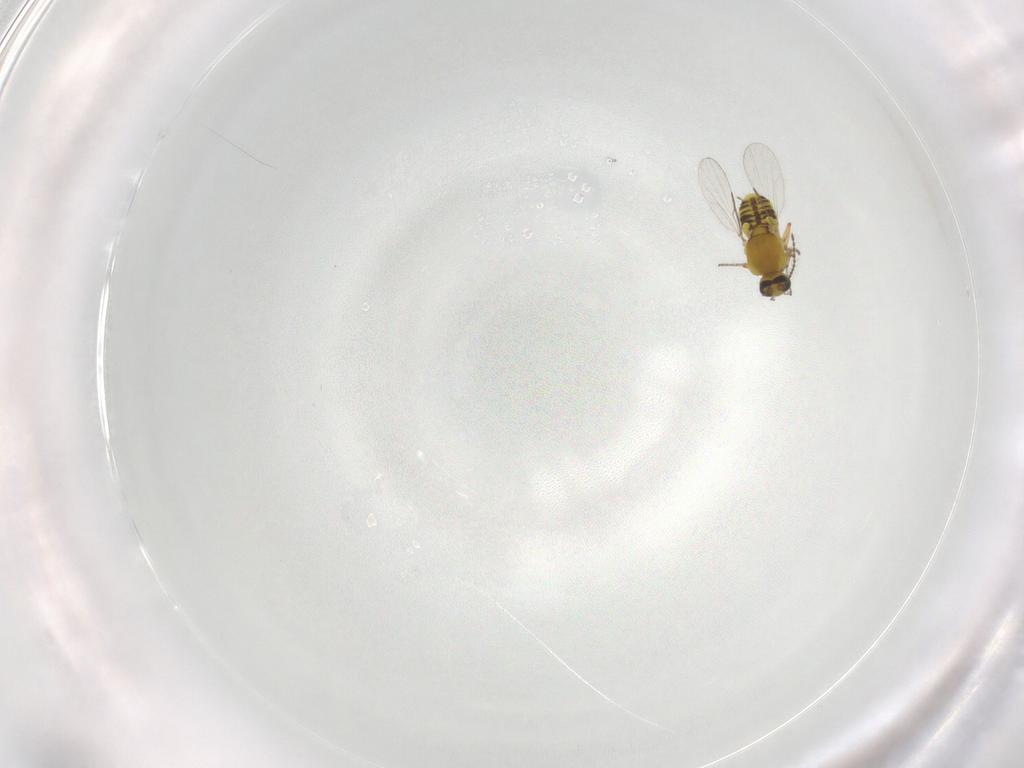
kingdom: Animalia
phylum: Arthropoda
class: Insecta
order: Diptera
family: Ceratopogonidae
